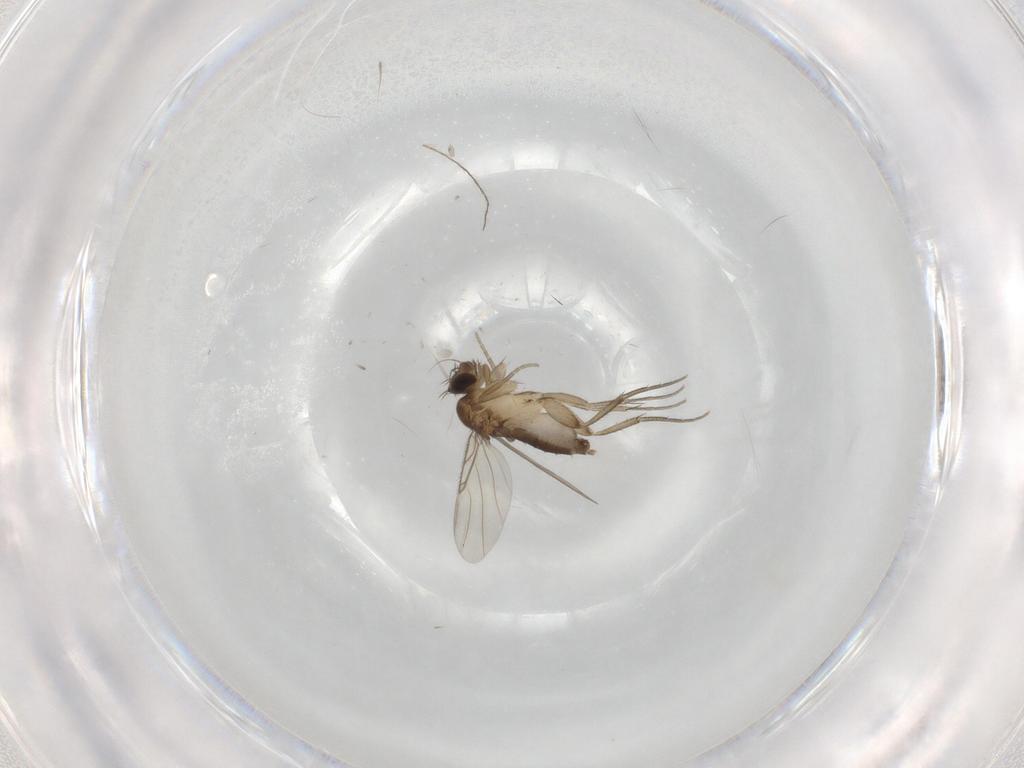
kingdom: Animalia
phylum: Arthropoda
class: Insecta
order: Diptera
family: Phoridae
